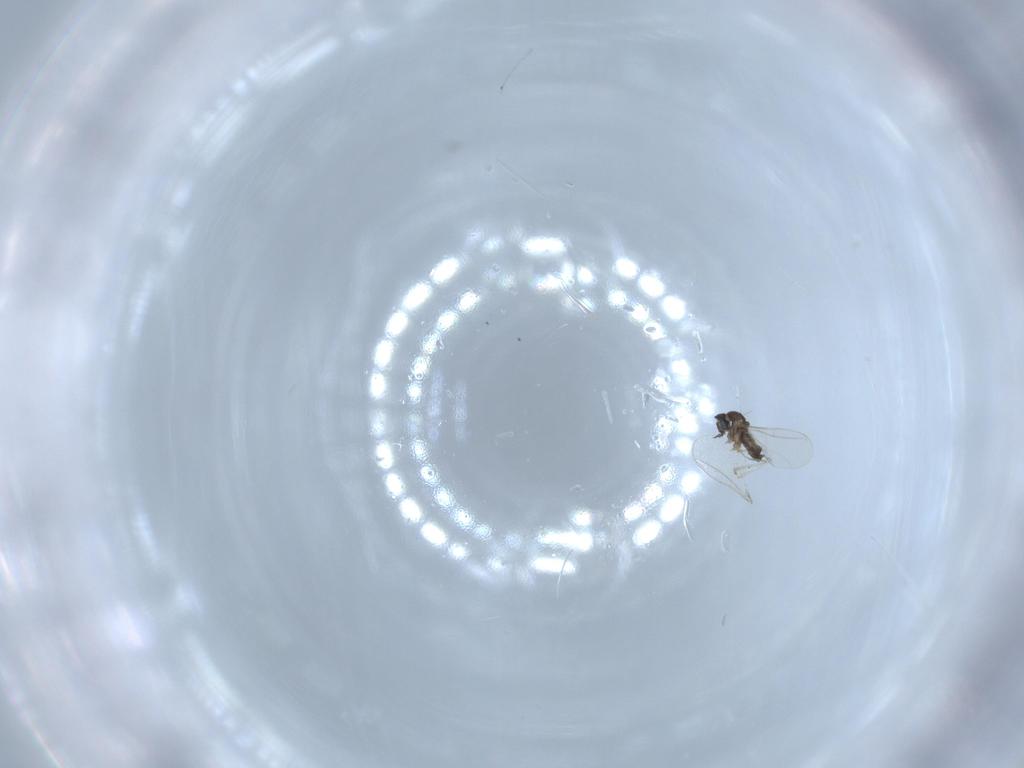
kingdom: Animalia
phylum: Arthropoda
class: Insecta
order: Diptera
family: Cecidomyiidae
